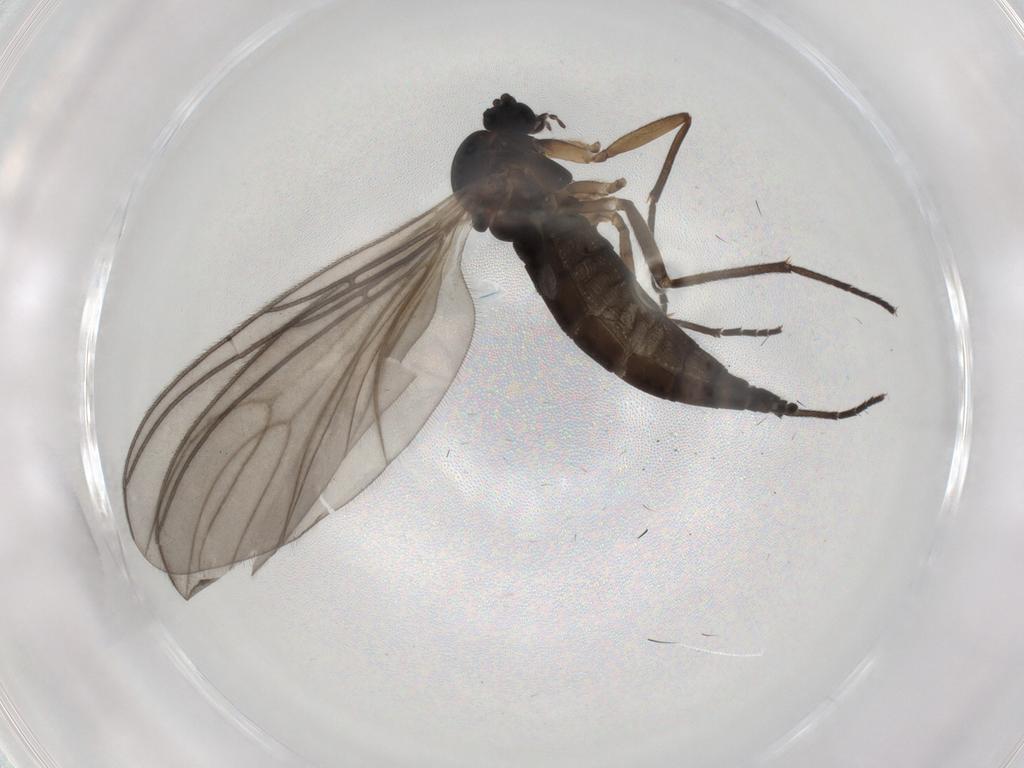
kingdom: Animalia
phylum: Arthropoda
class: Insecta
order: Diptera
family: Sciaridae
